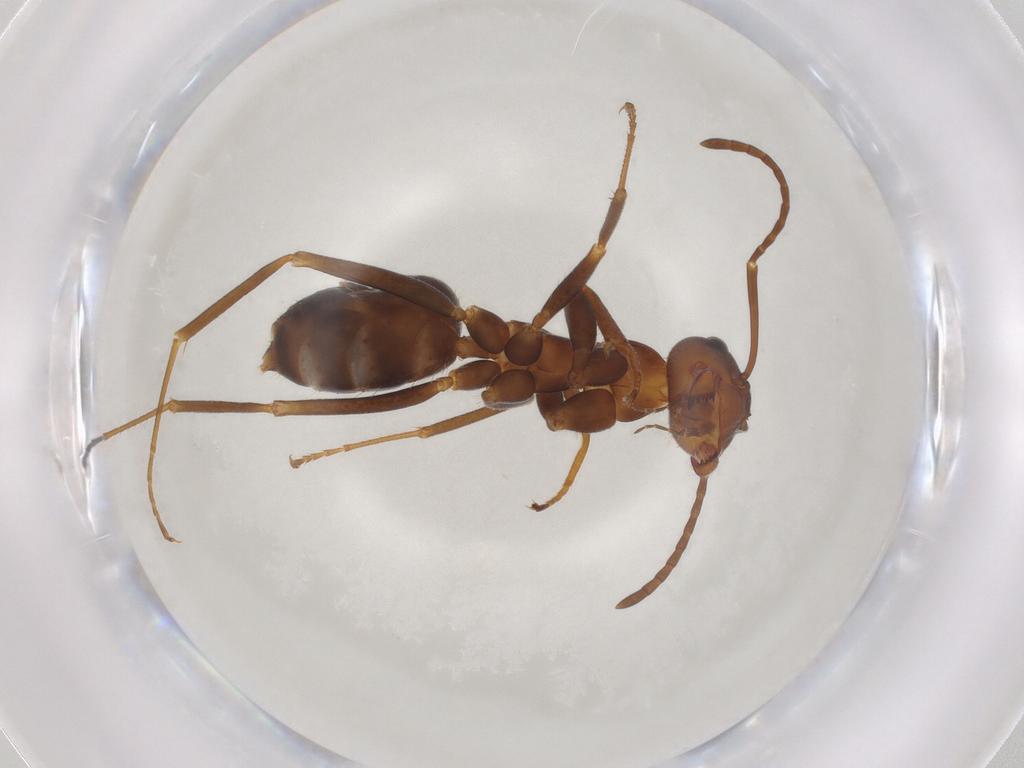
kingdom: Animalia
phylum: Arthropoda
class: Insecta
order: Hymenoptera
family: Formicidae
